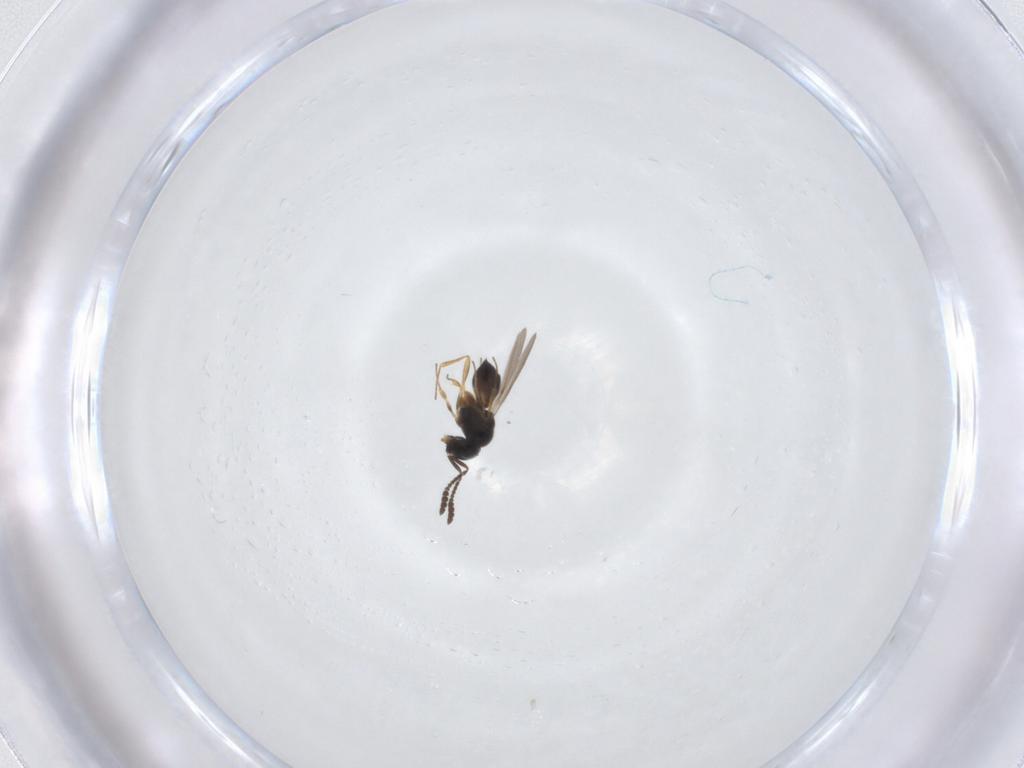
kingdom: Animalia
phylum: Arthropoda
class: Insecta
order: Hymenoptera
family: Scelionidae
